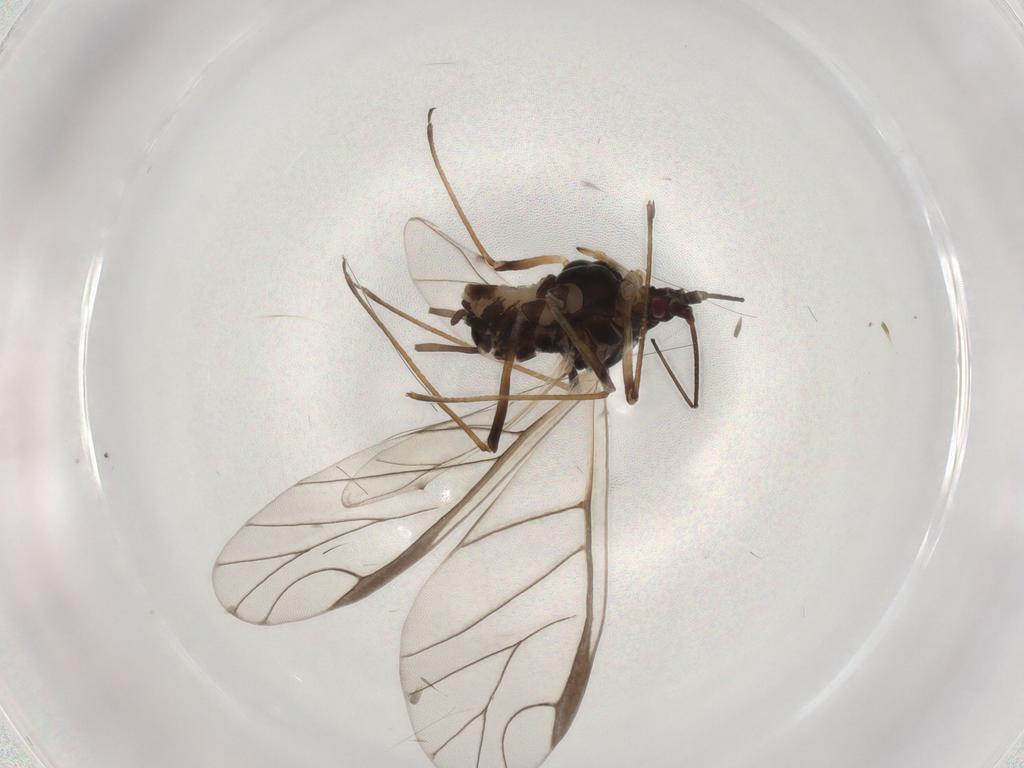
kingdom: Animalia
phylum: Arthropoda
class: Insecta
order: Hemiptera
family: Aphididae
